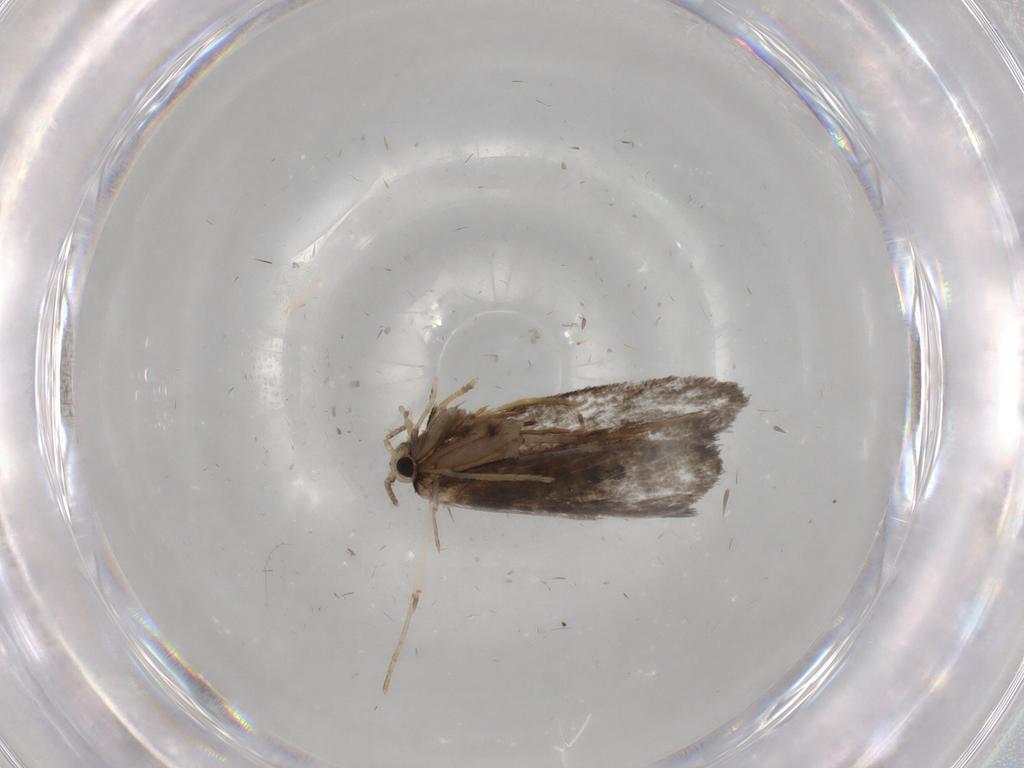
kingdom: Animalia
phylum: Arthropoda
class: Insecta
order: Lepidoptera
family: Psychidae
